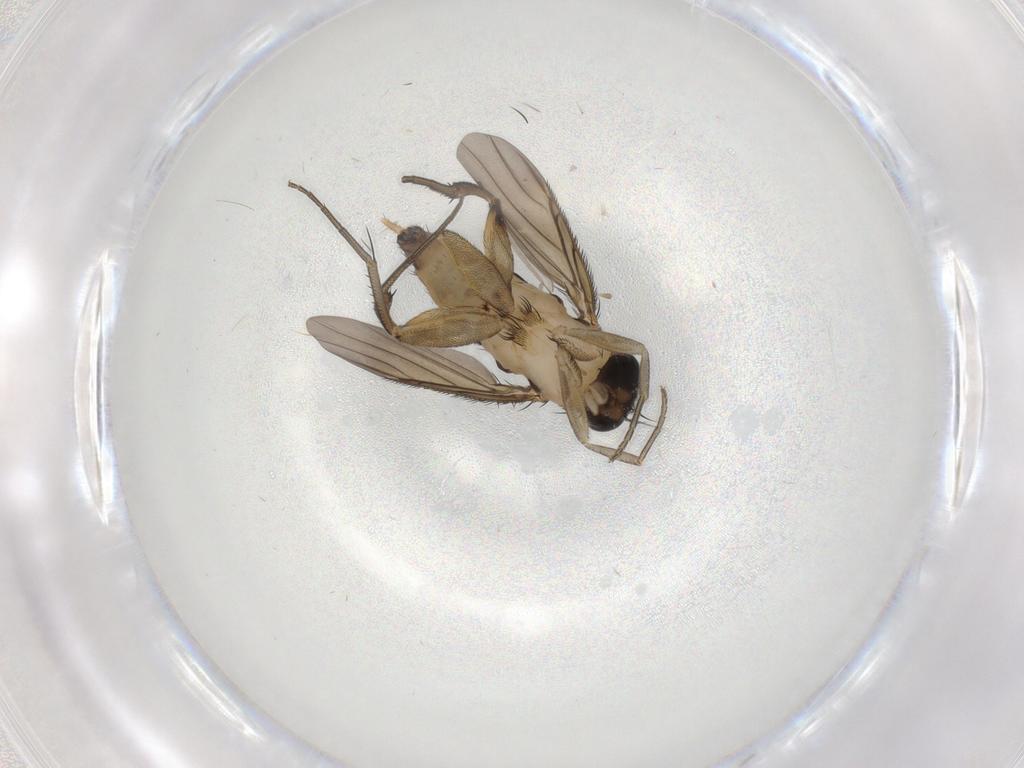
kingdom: Animalia
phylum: Arthropoda
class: Insecta
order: Diptera
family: Phoridae
